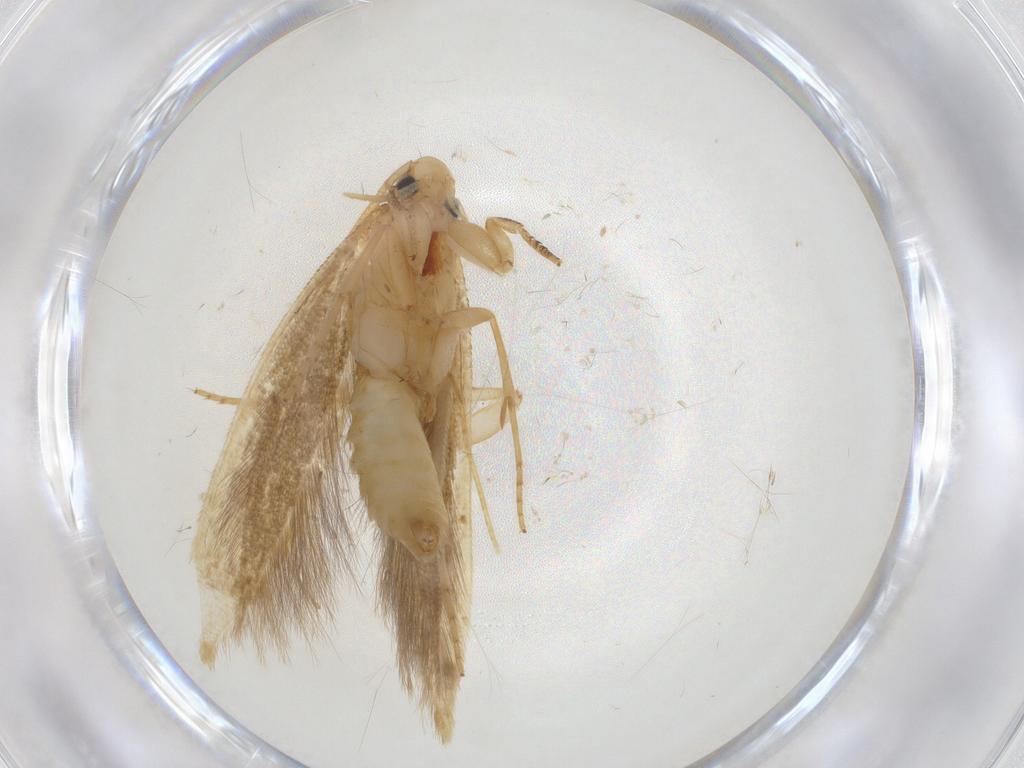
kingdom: Animalia
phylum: Arthropoda
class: Insecta
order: Lepidoptera
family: Tineidae
